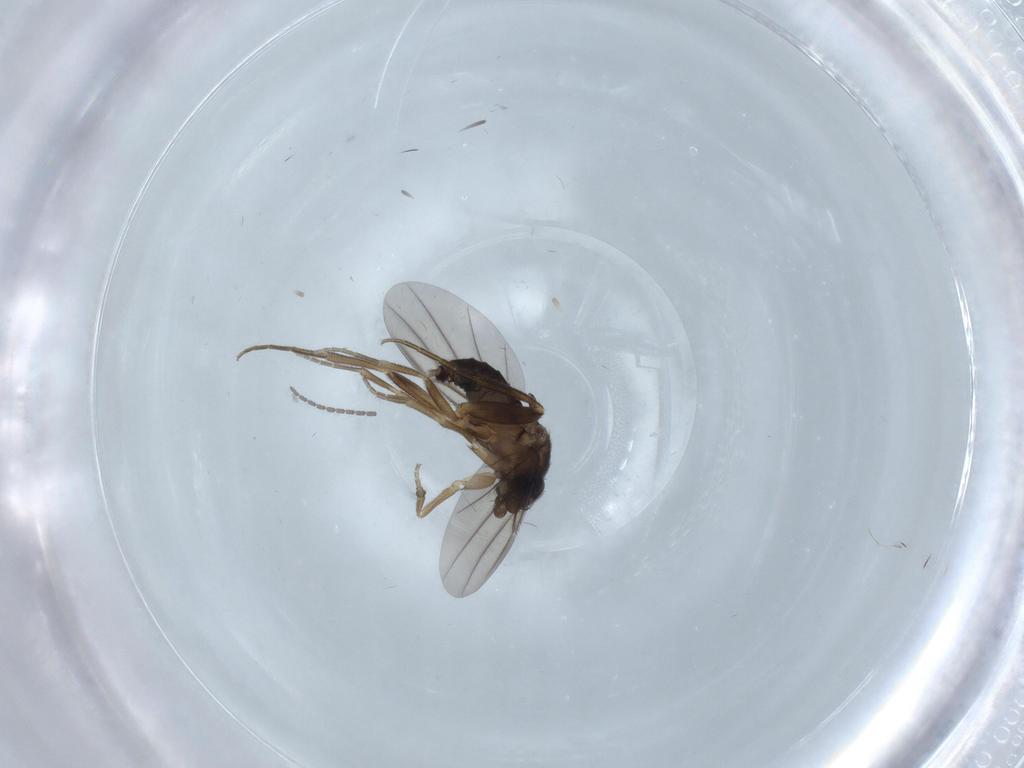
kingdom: Animalia
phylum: Arthropoda
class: Insecta
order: Diptera
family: Phoridae
